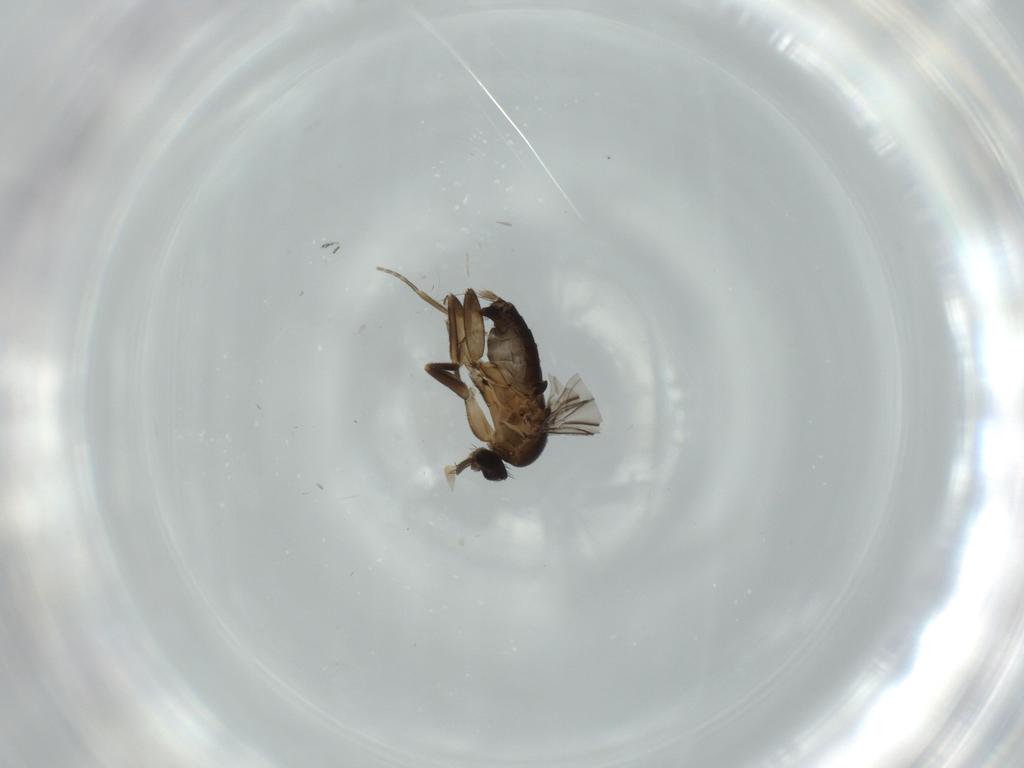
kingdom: Animalia
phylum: Arthropoda
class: Insecta
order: Diptera
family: Cecidomyiidae
